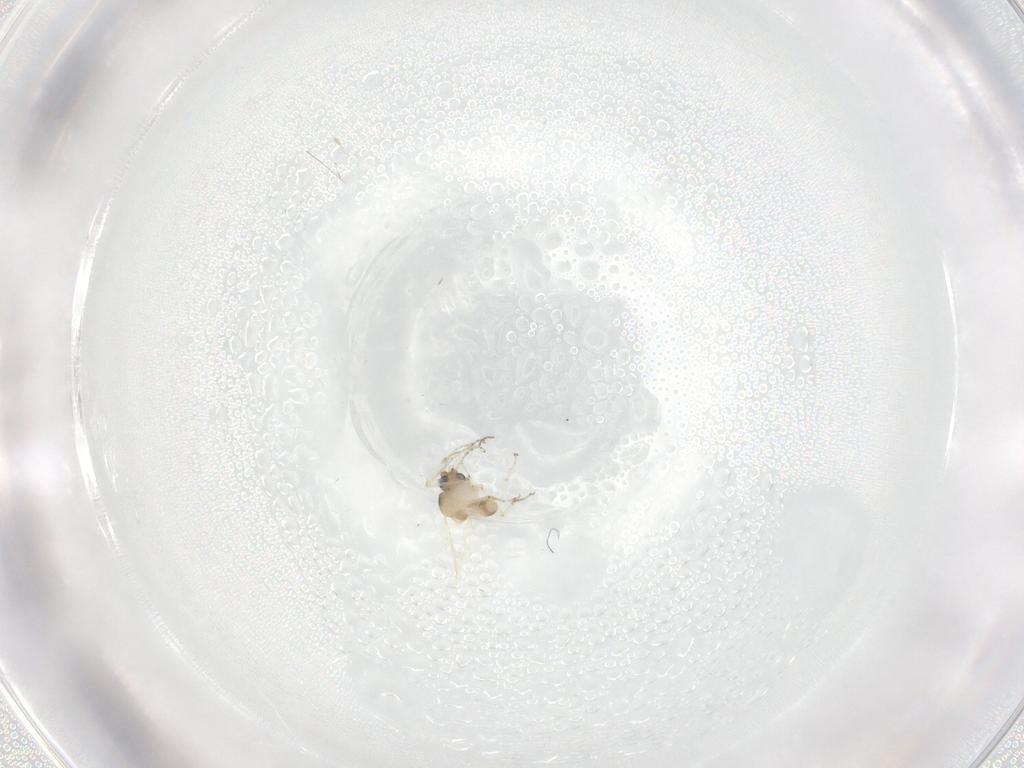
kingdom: Animalia
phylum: Arthropoda
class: Insecta
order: Diptera
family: Ceratopogonidae
